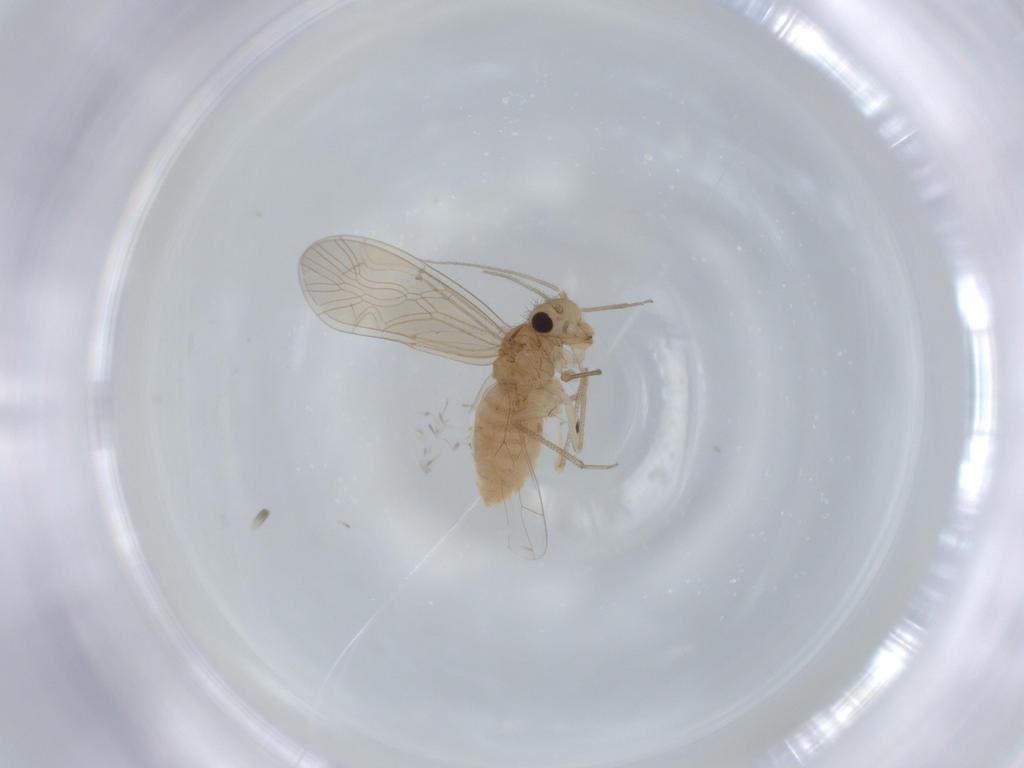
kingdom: Animalia
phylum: Arthropoda
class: Insecta
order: Psocodea
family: Caeciliusidae
